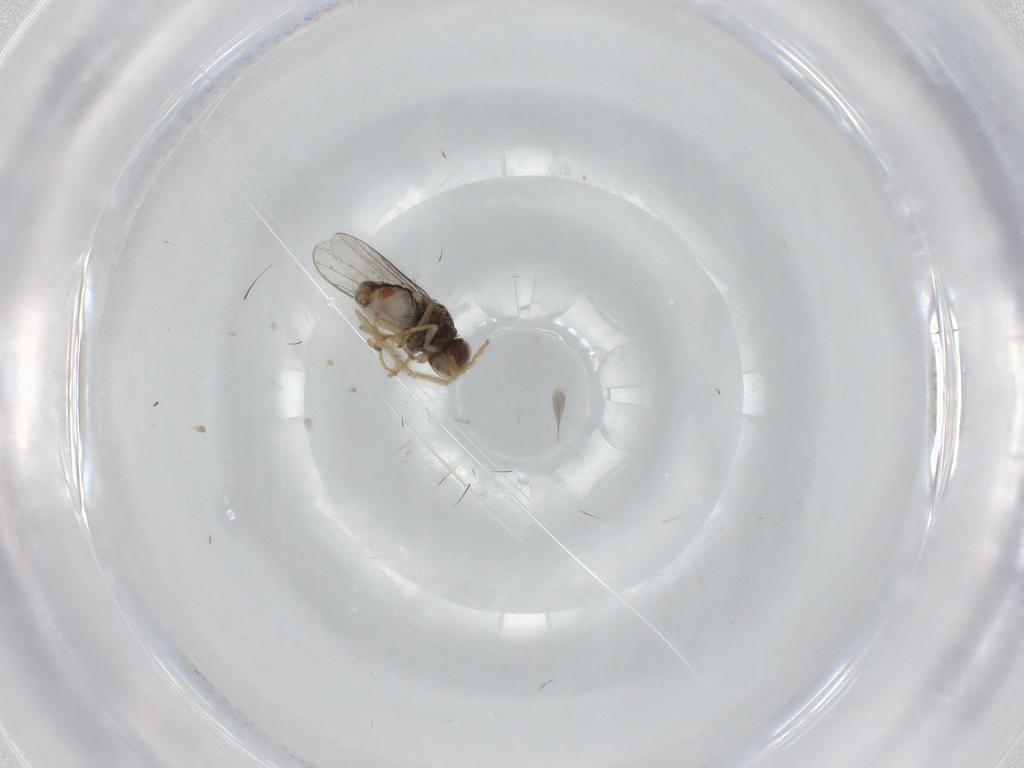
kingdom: Animalia
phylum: Arthropoda
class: Insecta
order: Diptera
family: Chloropidae
